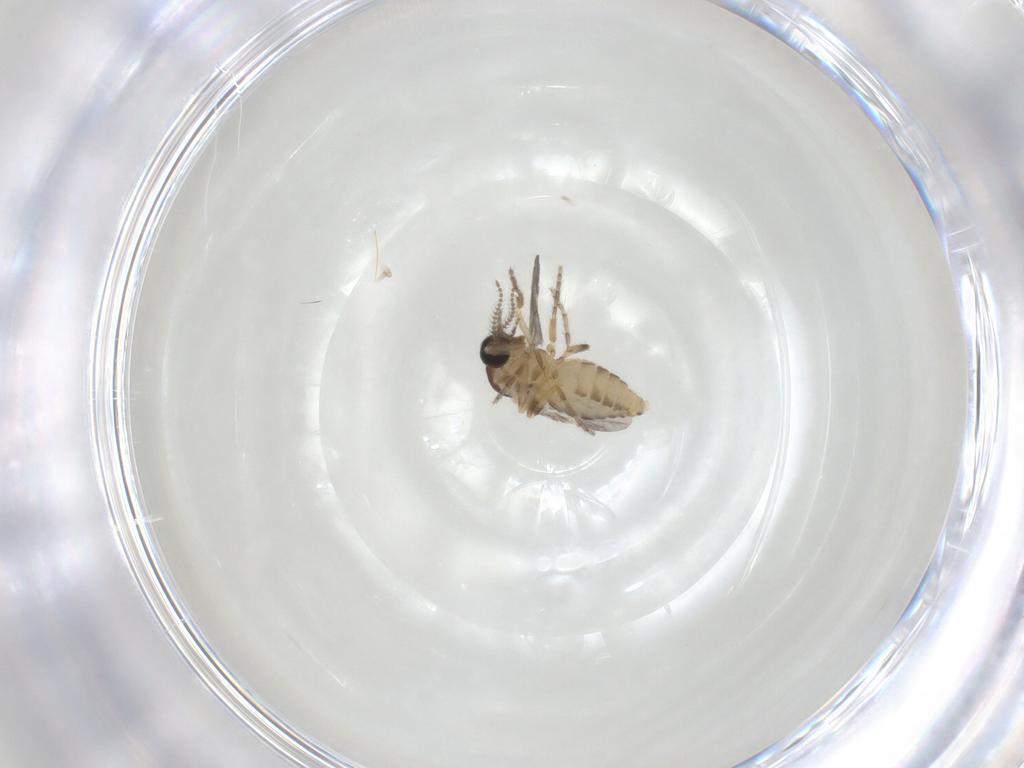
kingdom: Animalia
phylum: Arthropoda
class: Insecta
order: Diptera
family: Ceratopogonidae
